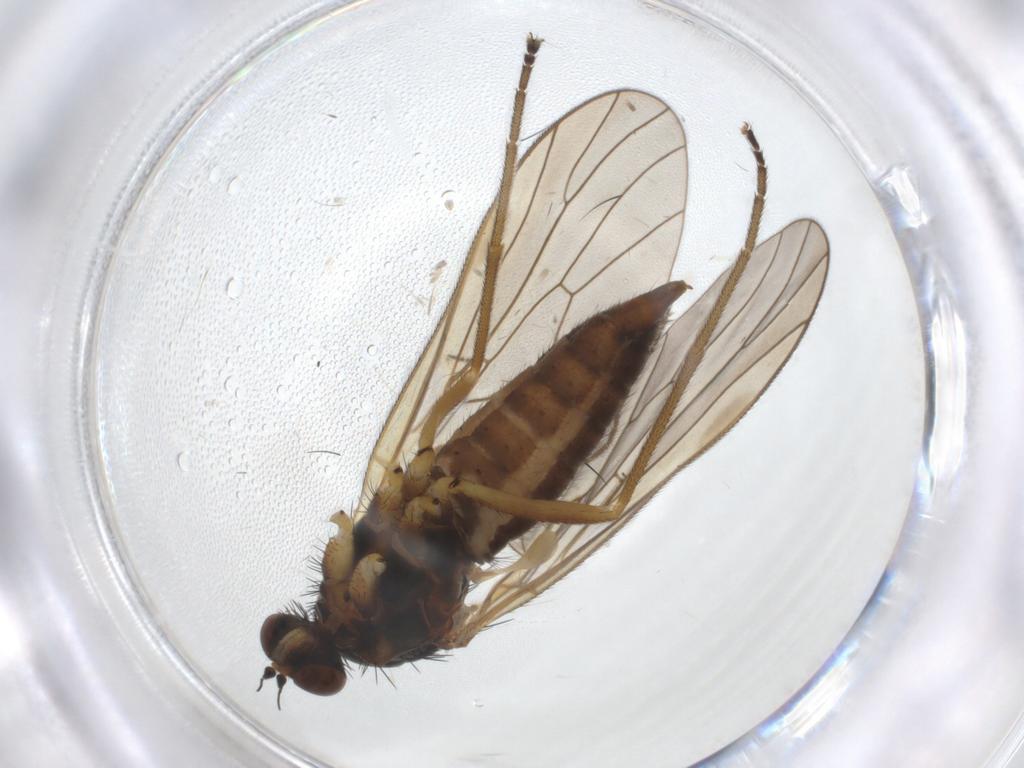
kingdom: Animalia
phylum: Arthropoda
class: Insecta
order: Diptera
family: Brachystomatidae
